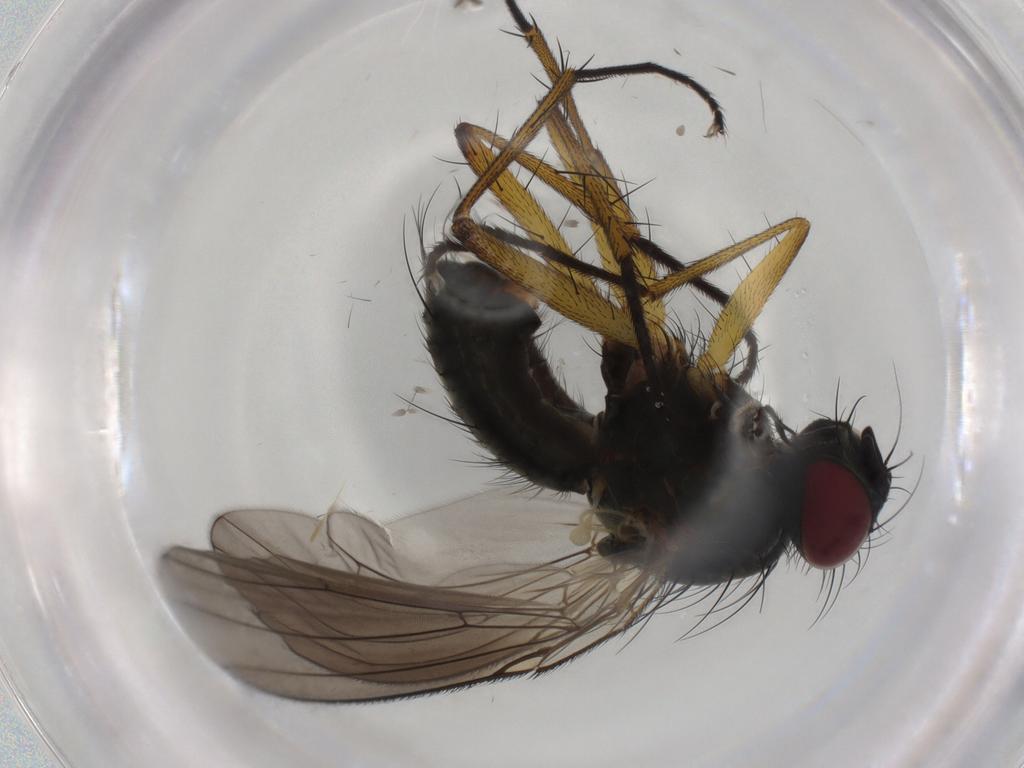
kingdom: Animalia
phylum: Arthropoda
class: Insecta
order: Diptera
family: Muscidae
